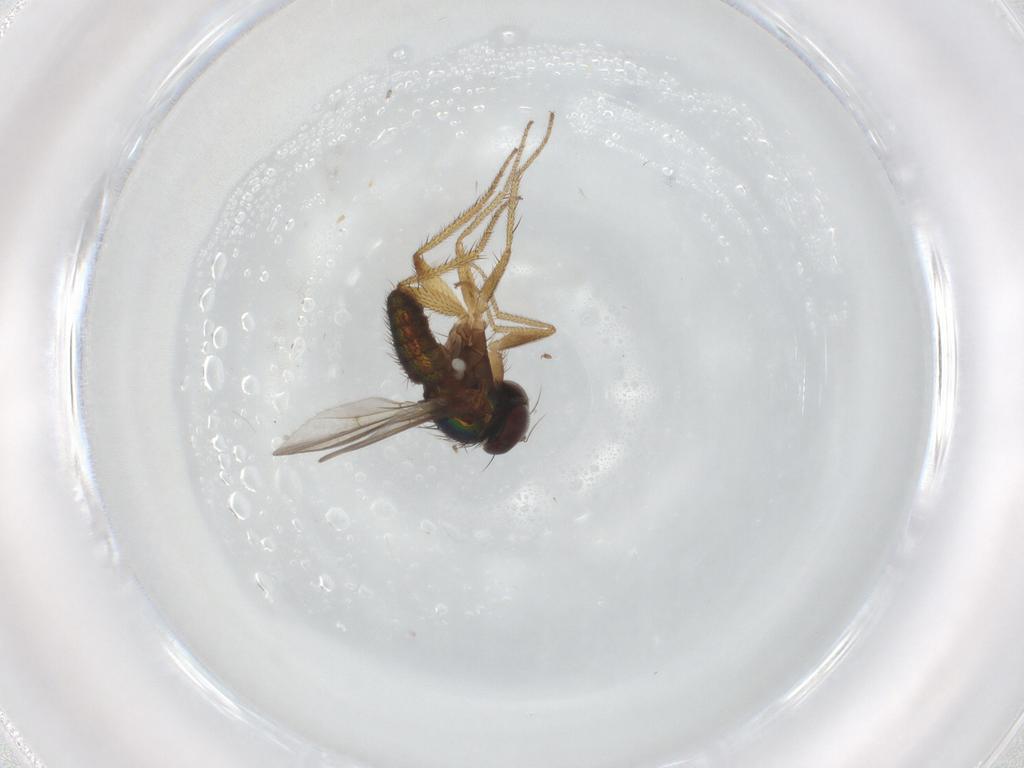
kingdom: Animalia
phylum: Arthropoda
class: Insecta
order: Diptera
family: Dolichopodidae
